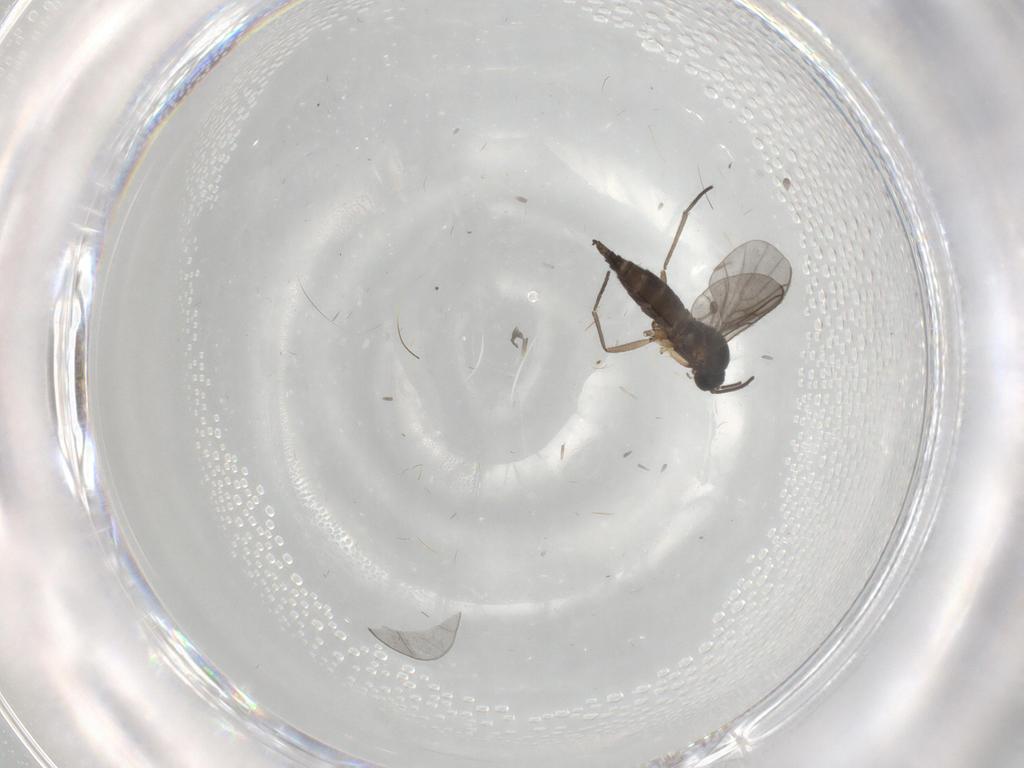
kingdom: Animalia
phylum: Arthropoda
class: Insecta
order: Diptera
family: Sciaridae
